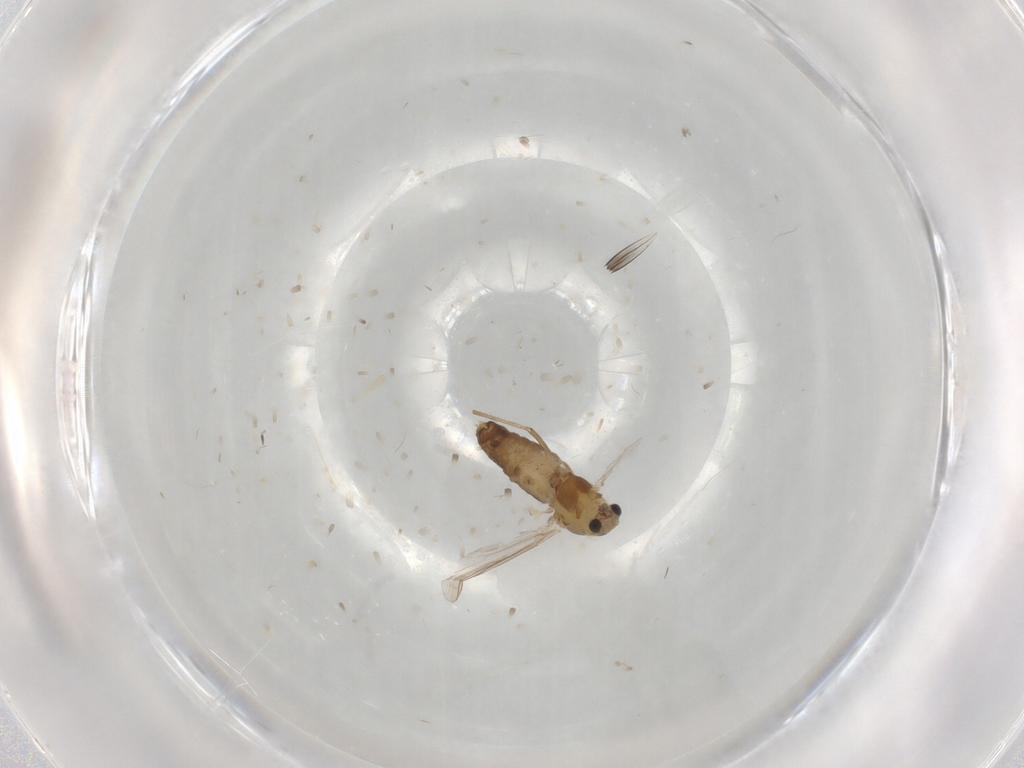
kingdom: Animalia
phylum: Arthropoda
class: Insecta
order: Diptera
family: Chironomidae
